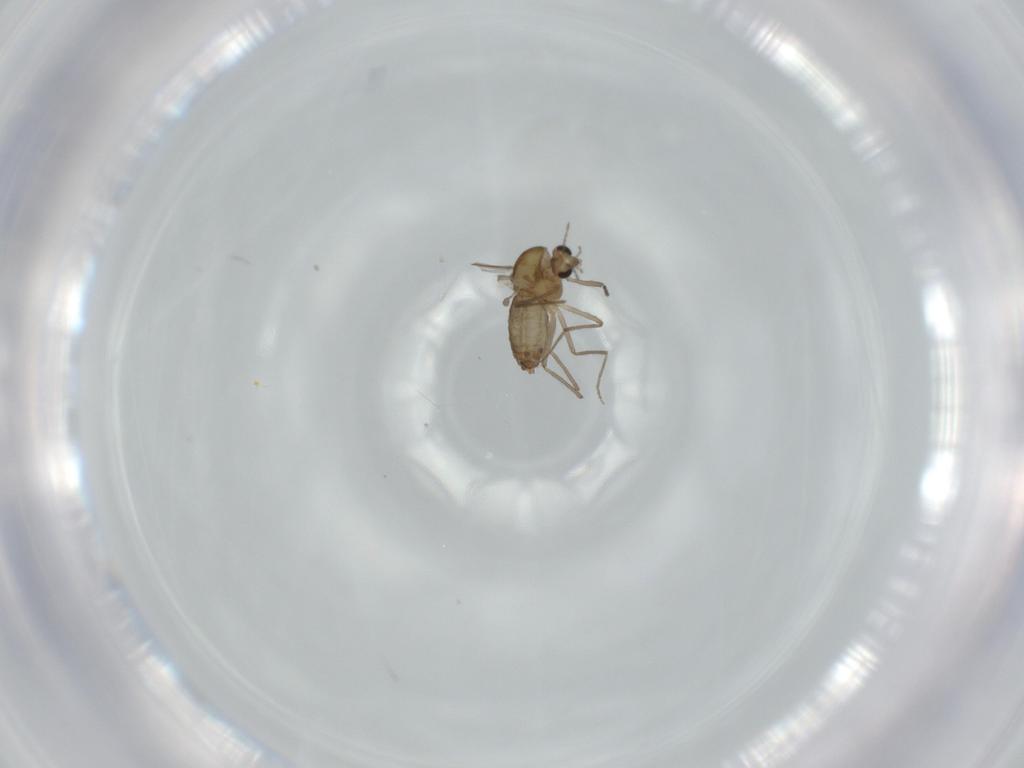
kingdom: Animalia
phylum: Arthropoda
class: Insecta
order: Diptera
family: Chironomidae
